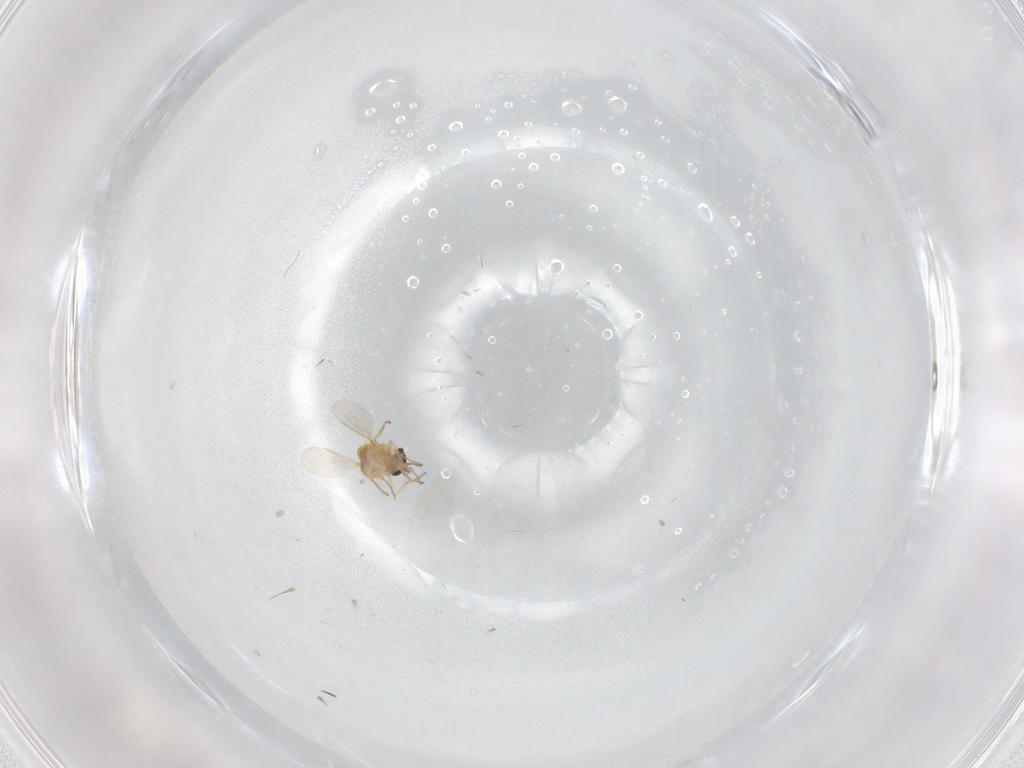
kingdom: Animalia
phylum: Arthropoda
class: Insecta
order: Diptera
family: Ceratopogonidae
